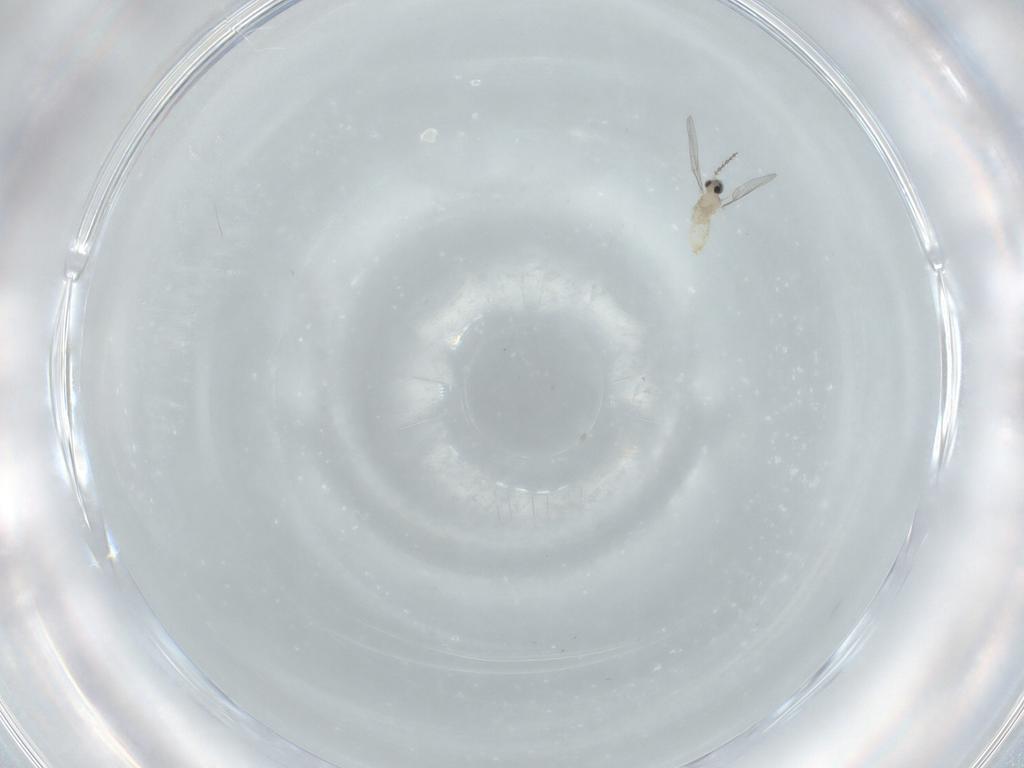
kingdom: Animalia
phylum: Arthropoda
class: Insecta
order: Diptera
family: Cecidomyiidae
